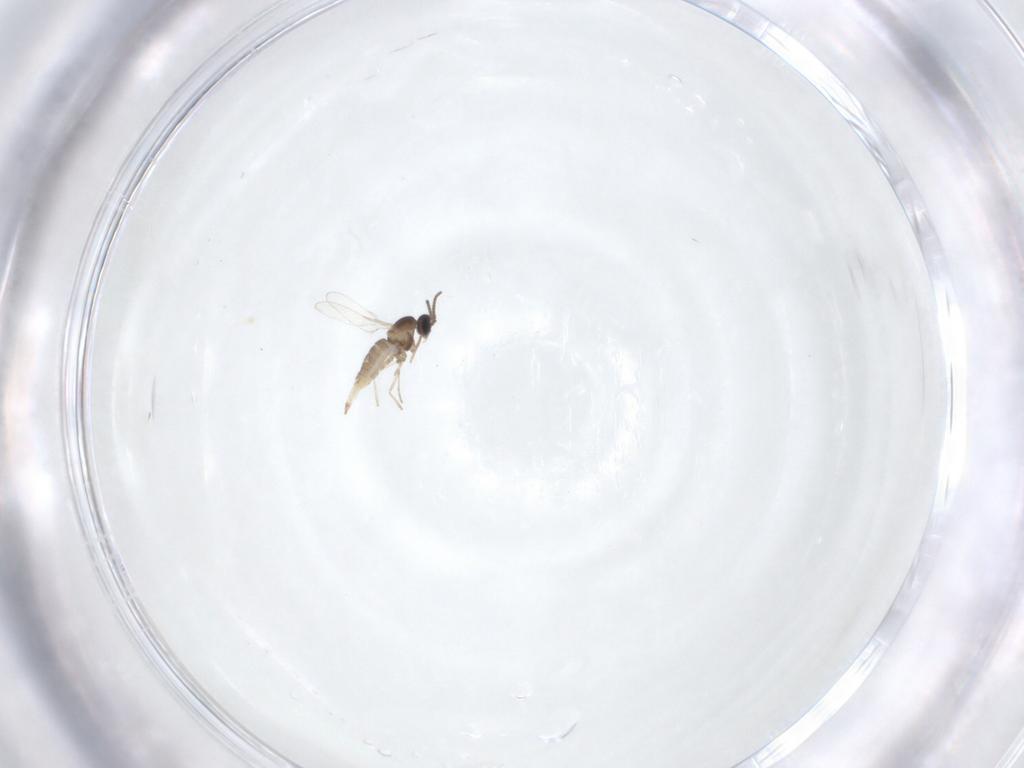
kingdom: Animalia
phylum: Arthropoda
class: Insecta
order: Diptera
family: Cecidomyiidae
